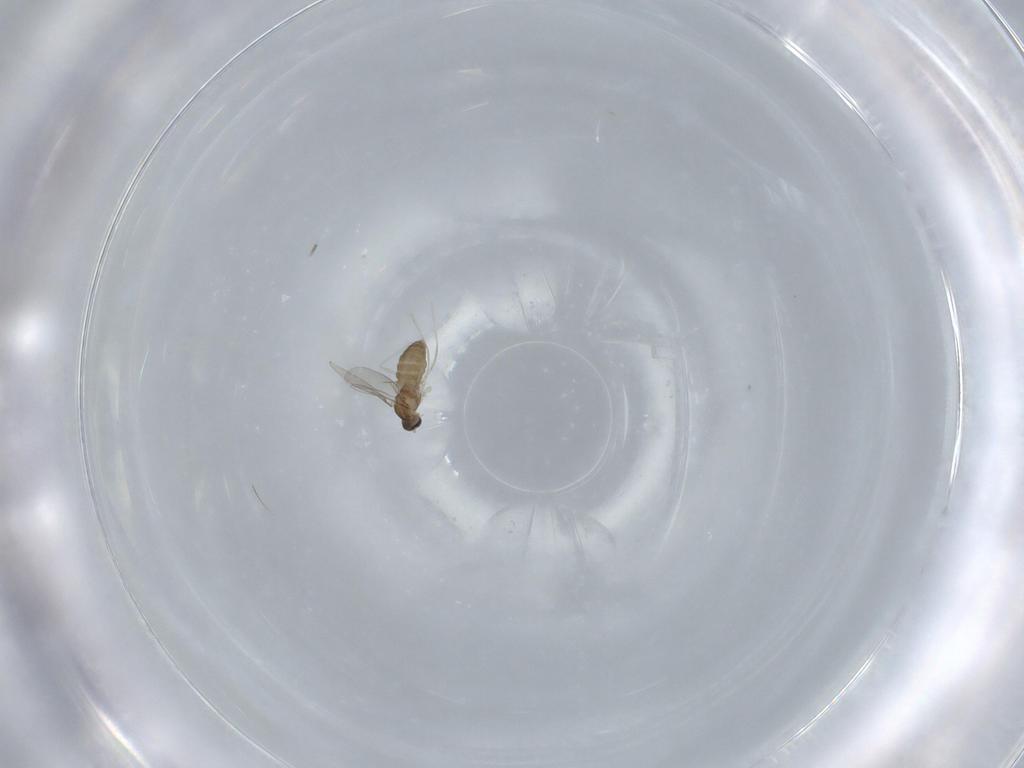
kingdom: Animalia
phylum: Arthropoda
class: Insecta
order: Diptera
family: Cecidomyiidae
